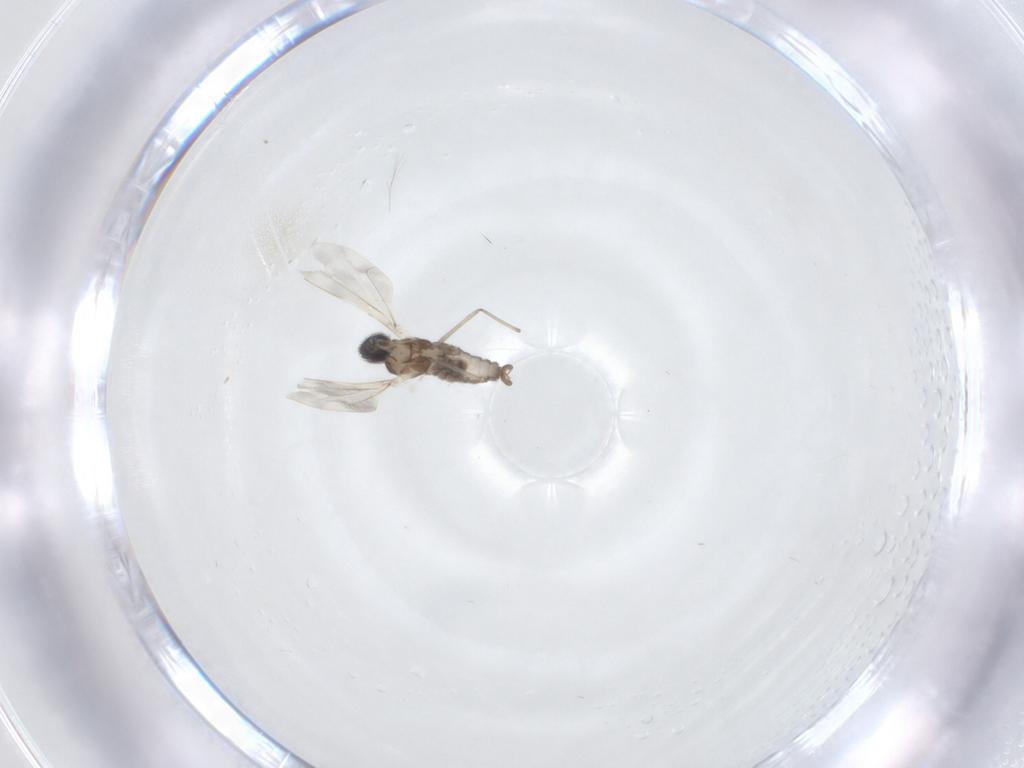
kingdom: Animalia
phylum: Arthropoda
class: Insecta
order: Diptera
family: Cecidomyiidae
